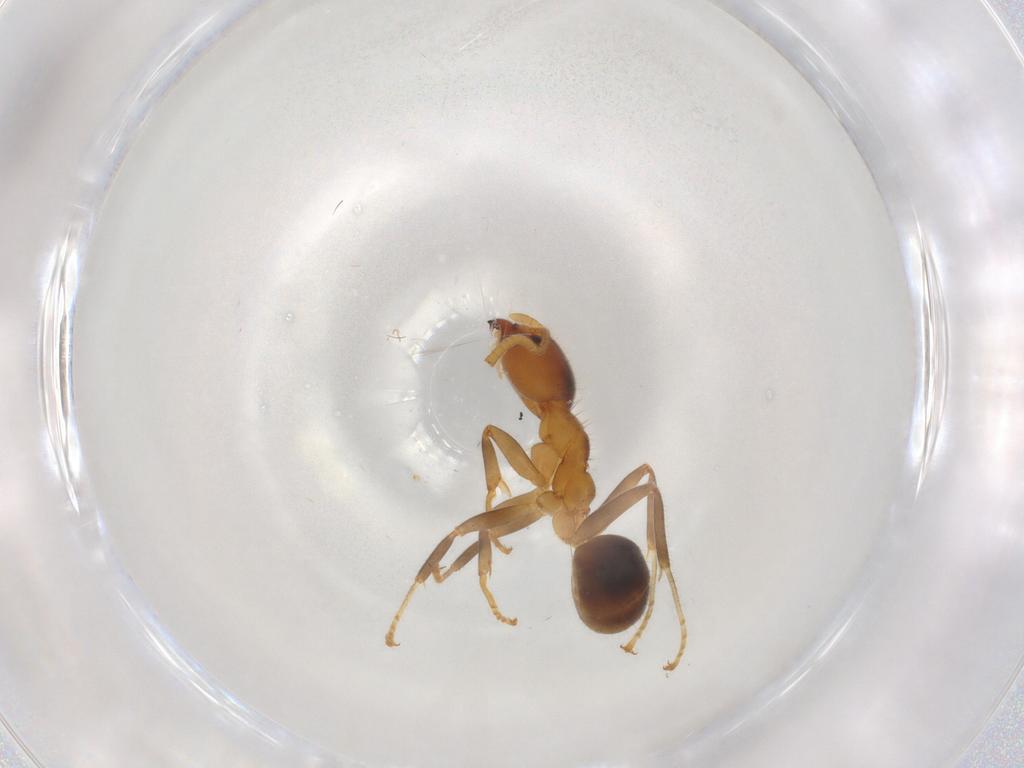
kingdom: Animalia
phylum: Arthropoda
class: Insecta
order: Hymenoptera
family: Formicidae
